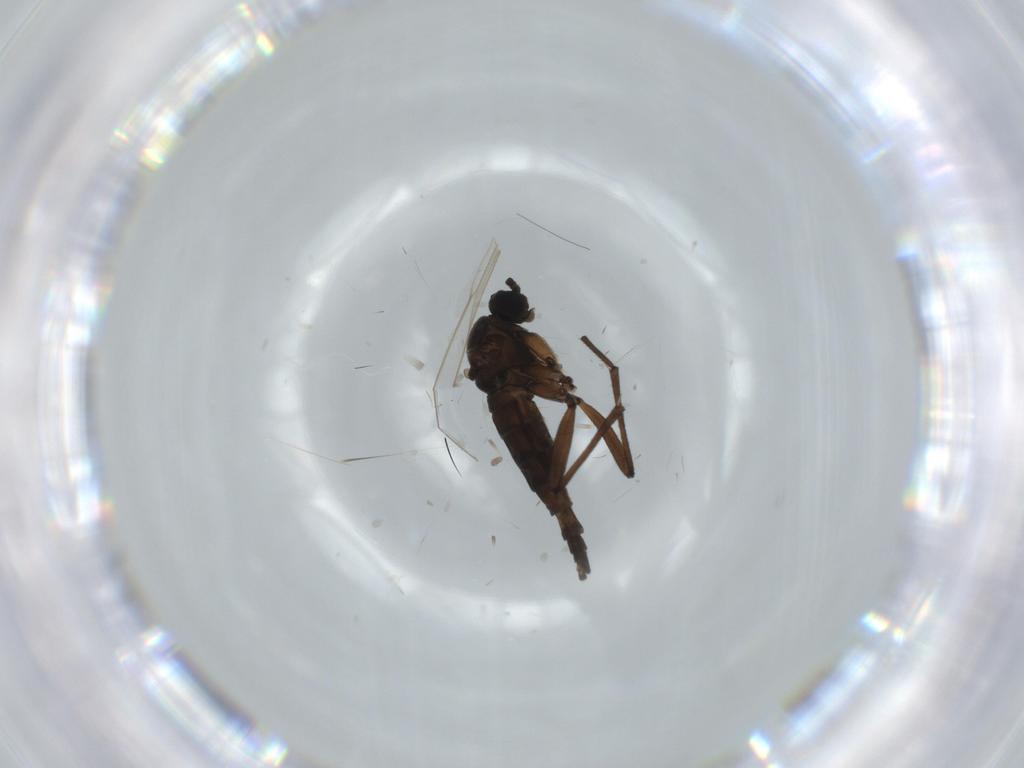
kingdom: Animalia
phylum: Arthropoda
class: Insecta
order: Diptera
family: Sciaridae
